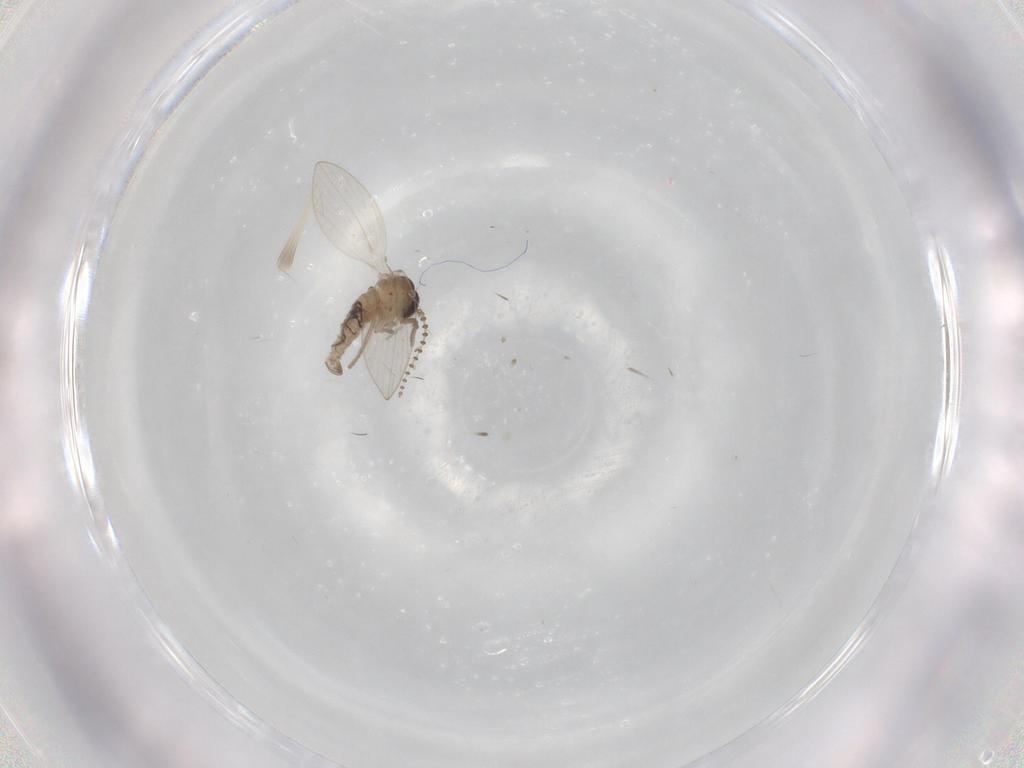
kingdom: Animalia
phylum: Arthropoda
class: Insecta
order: Diptera
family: Psychodidae
